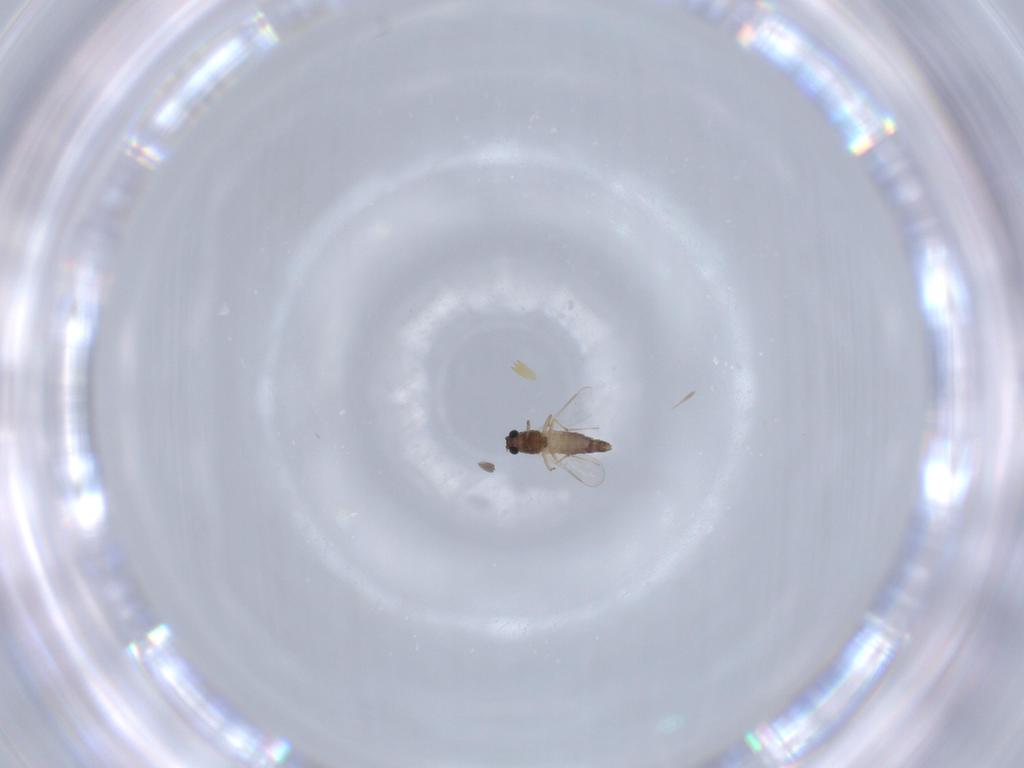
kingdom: Animalia
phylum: Arthropoda
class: Insecta
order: Diptera
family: Chironomidae
